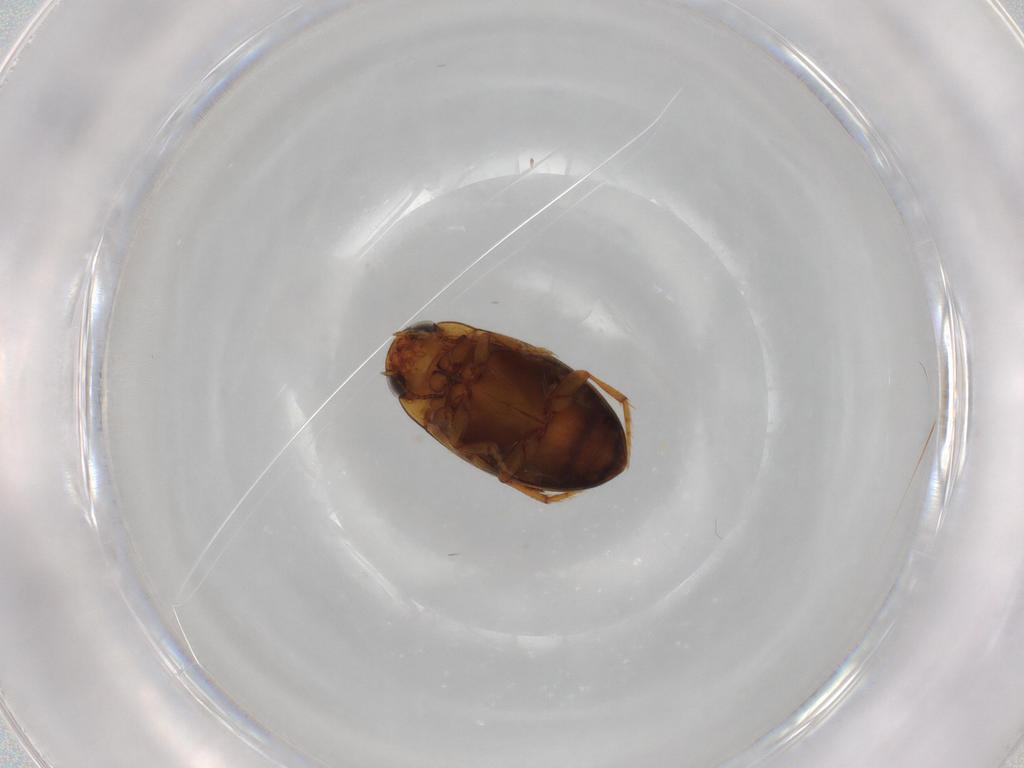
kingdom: Animalia
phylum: Arthropoda
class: Insecta
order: Coleoptera
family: Dytiscidae
